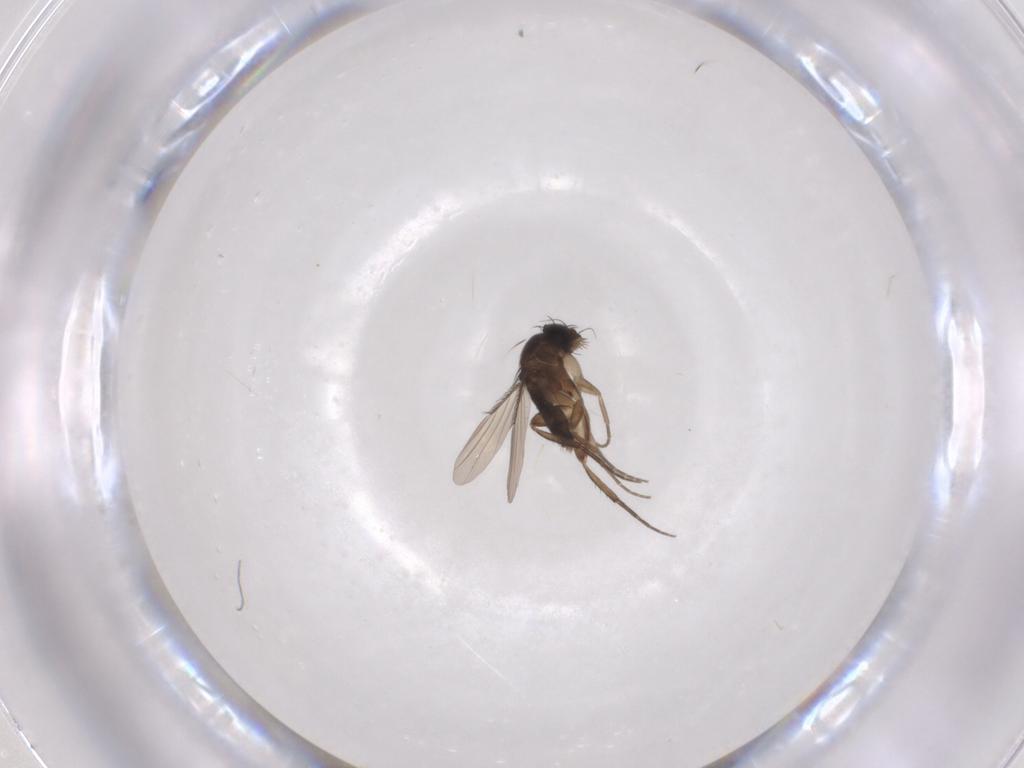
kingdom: Animalia
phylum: Arthropoda
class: Insecta
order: Diptera
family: Phoridae
